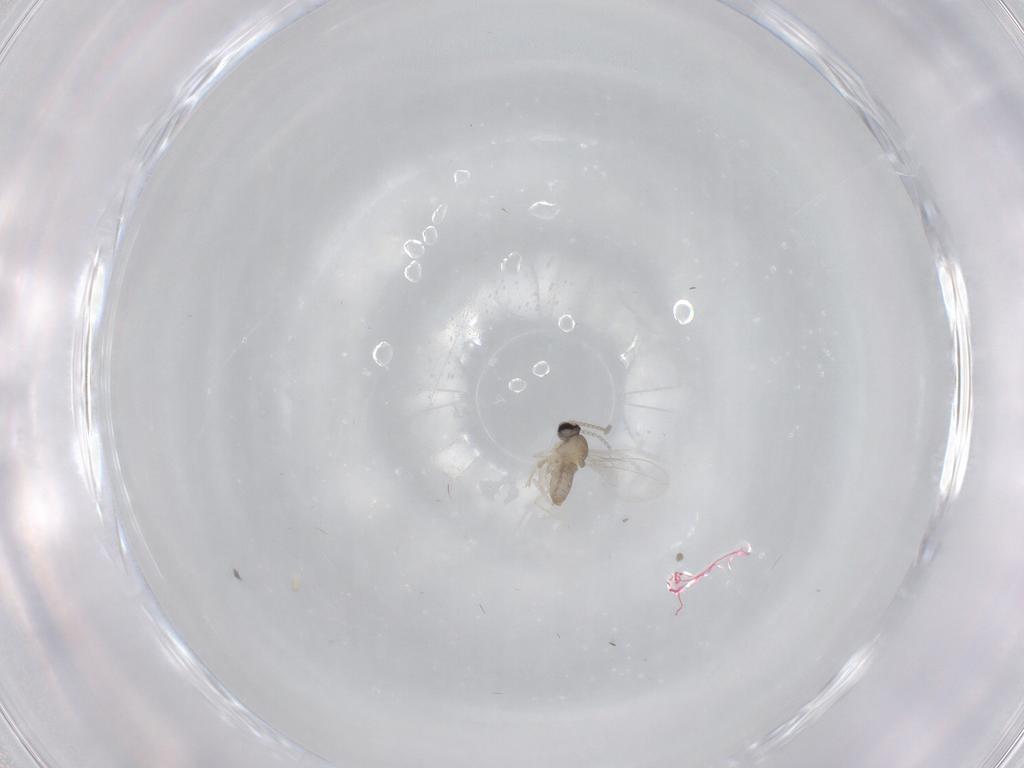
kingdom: Animalia
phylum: Arthropoda
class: Insecta
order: Diptera
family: Cecidomyiidae
